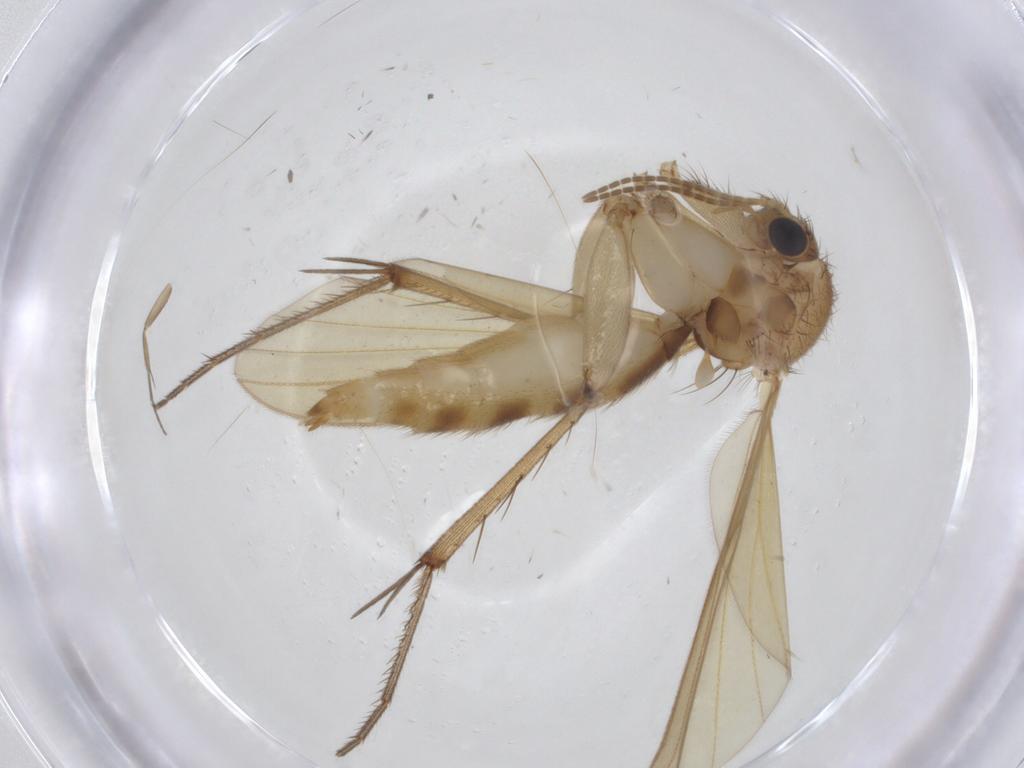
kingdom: Animalia
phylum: Arthropoda
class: Insecta
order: Diptera
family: Mycetophilidae
